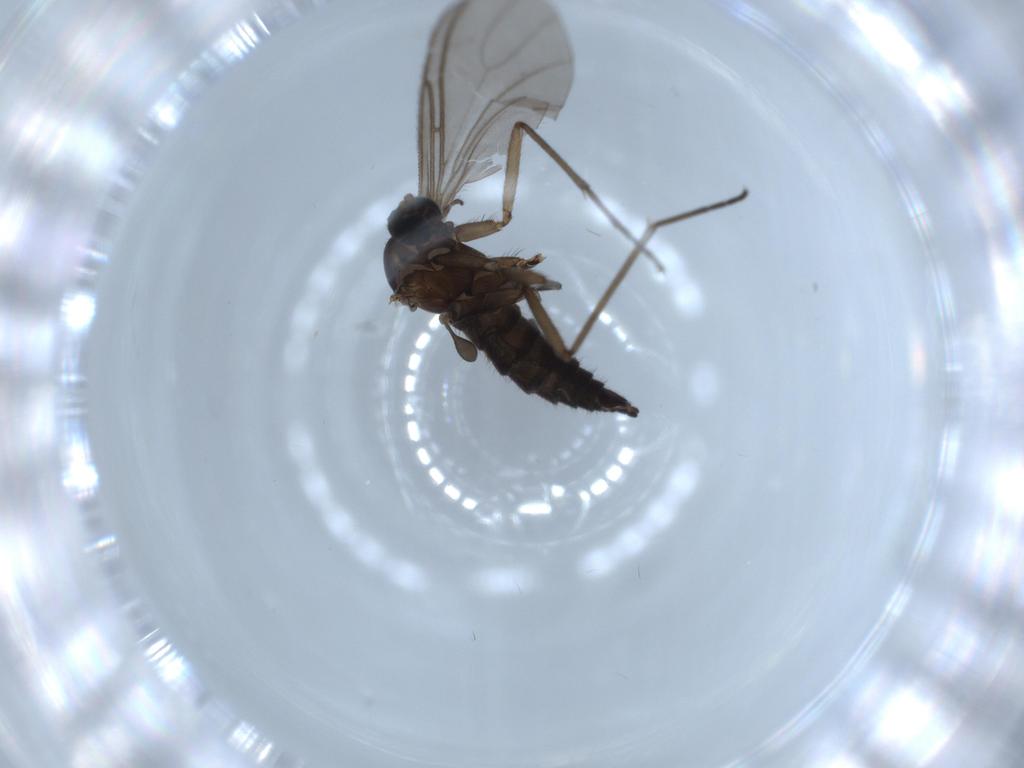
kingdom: Animalia
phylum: Arthropoda
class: Insecta
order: Diptera
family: Sciaridae
